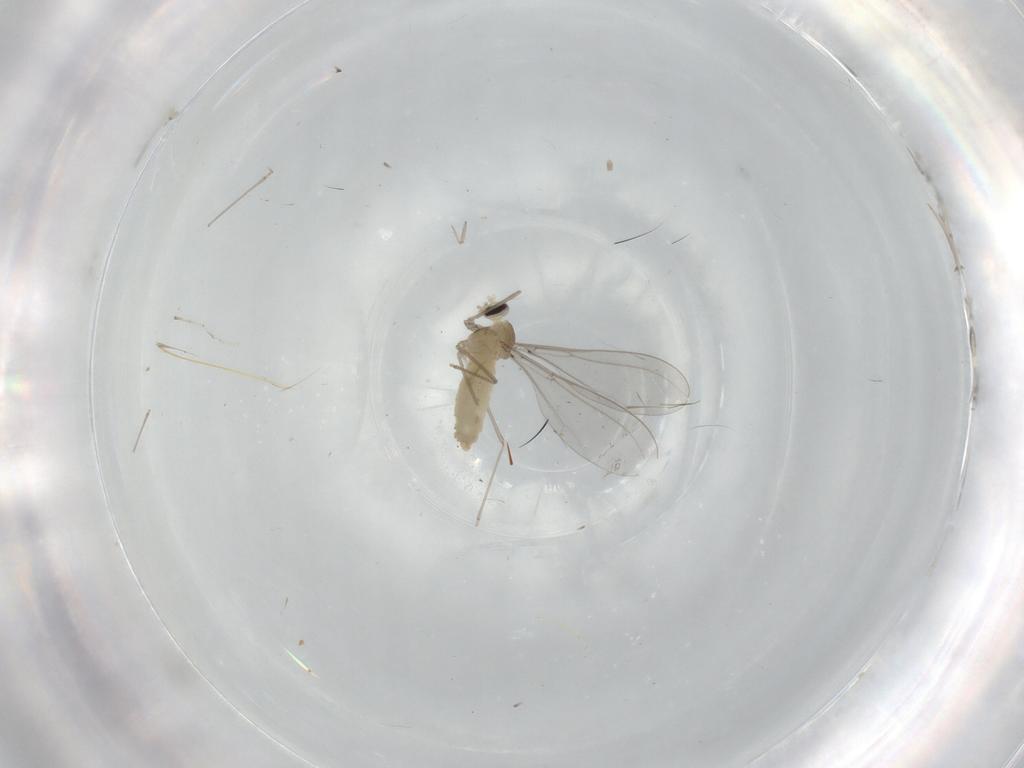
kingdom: Animalia
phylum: Arthropoda
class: Insecta
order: Diptera
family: Cecidomyiidae
